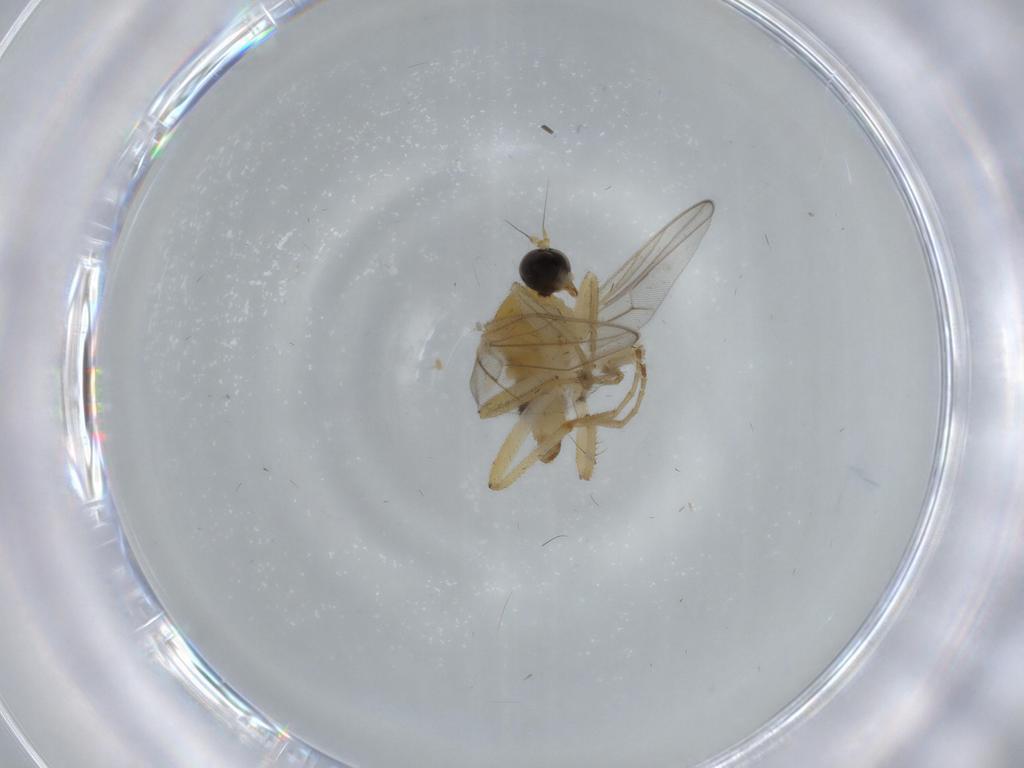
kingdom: Animalia
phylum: Arthropoda
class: Insecta
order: Diptera
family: Hybotidae
